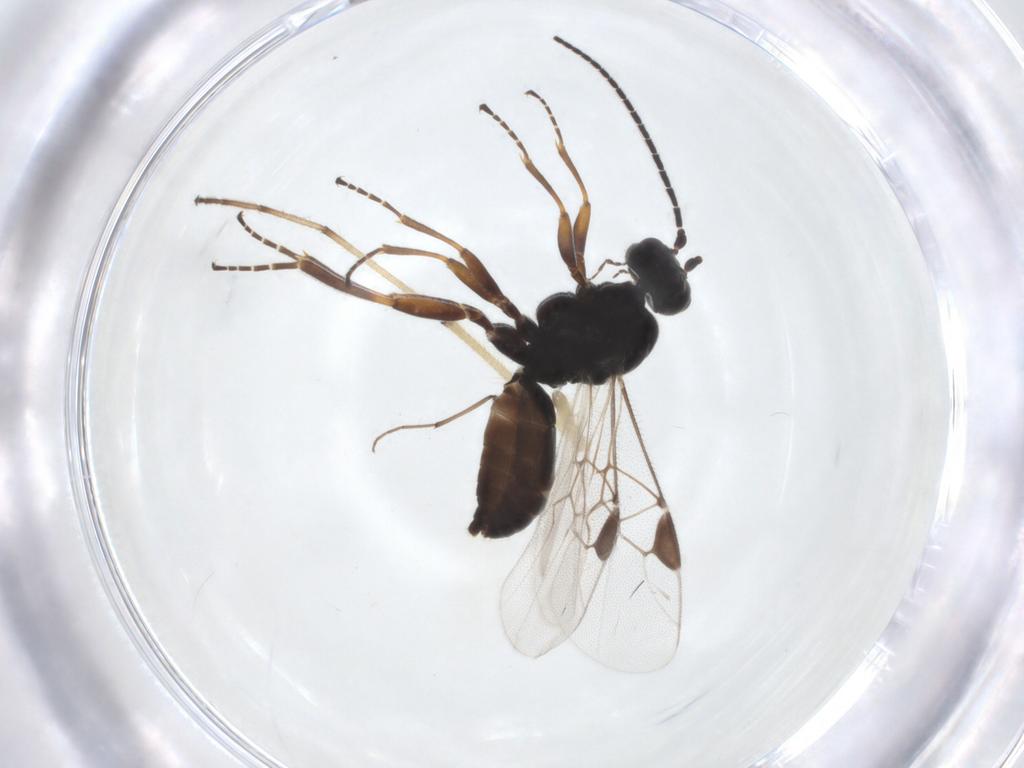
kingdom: Animalia
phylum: Arthropoda
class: Insecta
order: Hymenoptera
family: Braconidae
